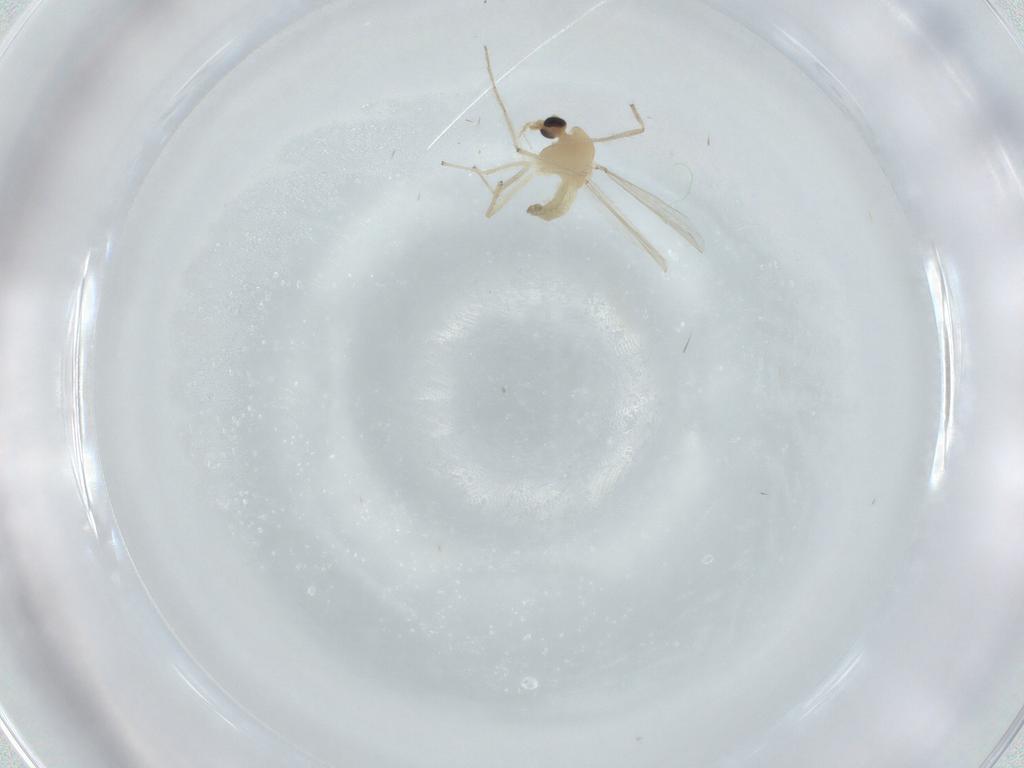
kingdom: Animalia
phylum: Arthropoda
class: Insecta
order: Diptera
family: Chironomidae
